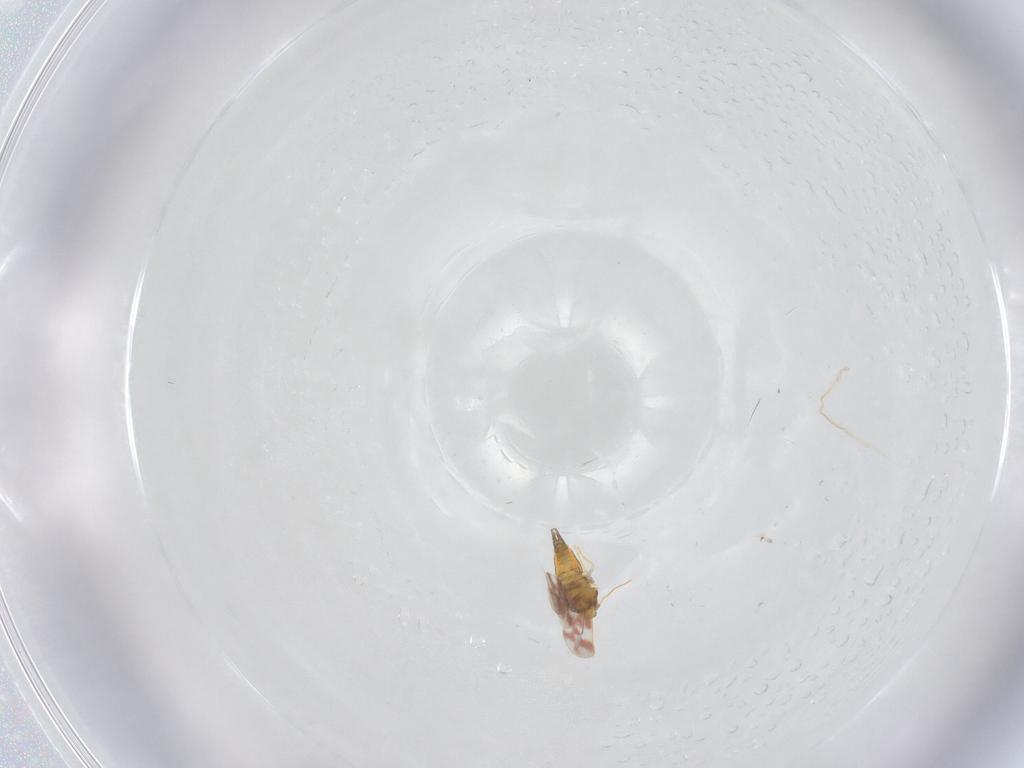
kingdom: Animalia
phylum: Arthropoda
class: Insecta
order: Hemiptera
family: Aleyrodidae
